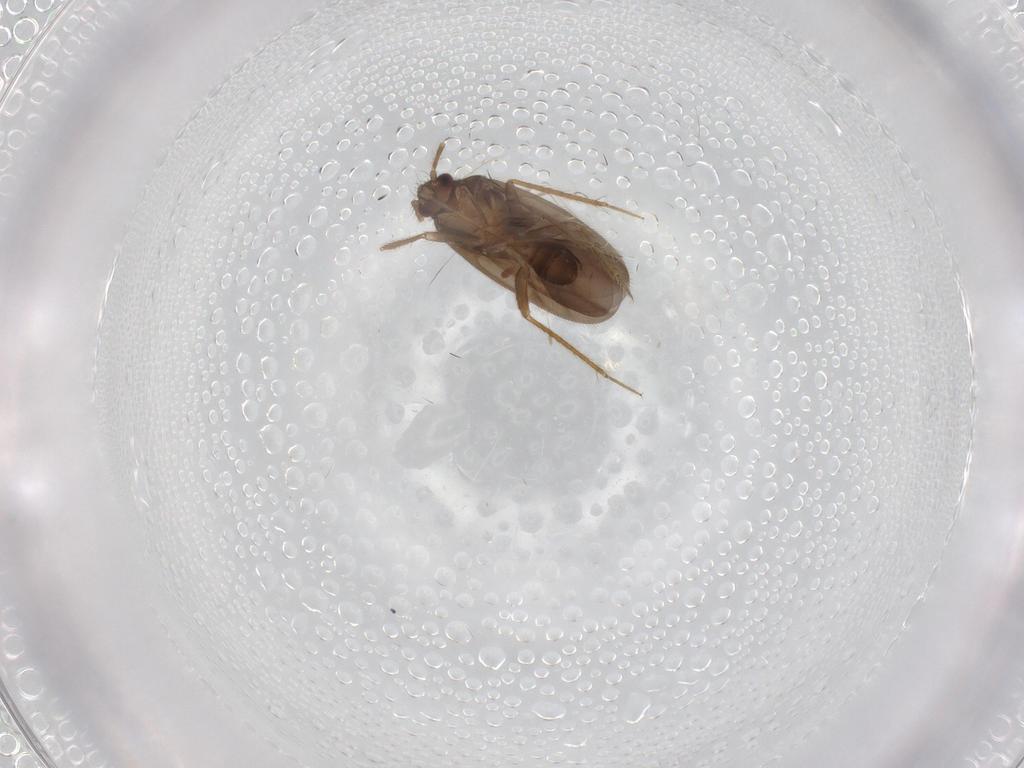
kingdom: Animalia
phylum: Arthropoda
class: Insecta
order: Hemiptera
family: Ceratocombidae
